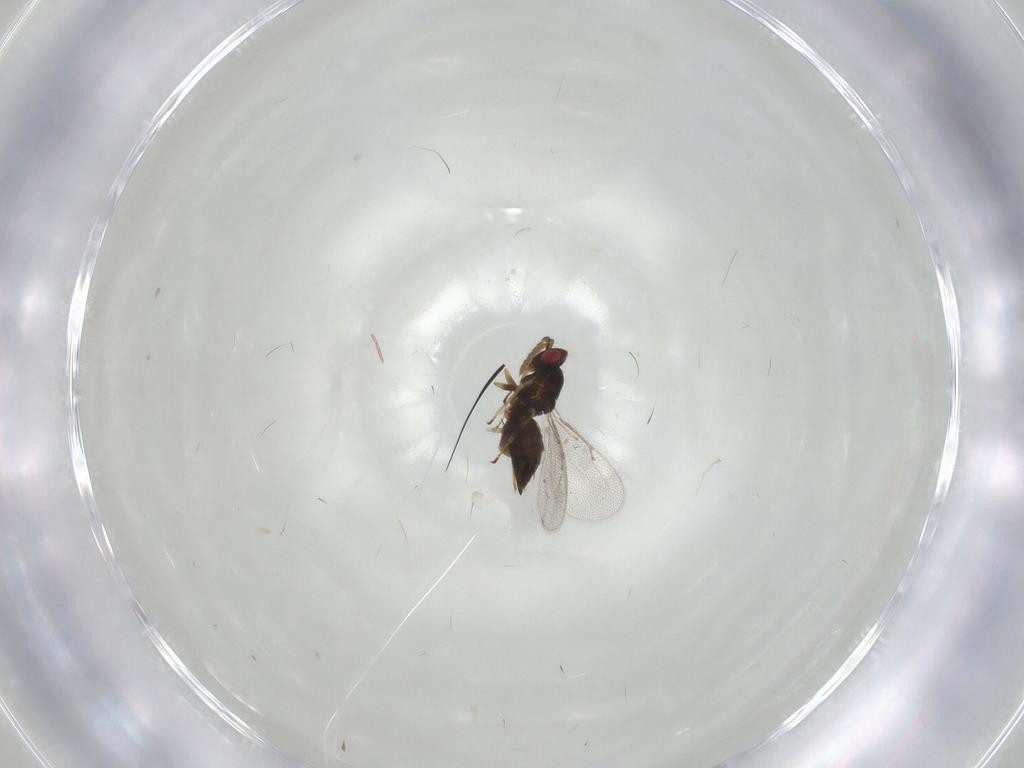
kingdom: Animalia
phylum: Arthropoda
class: Insecta
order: Hymenoptera
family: Eulophidae
